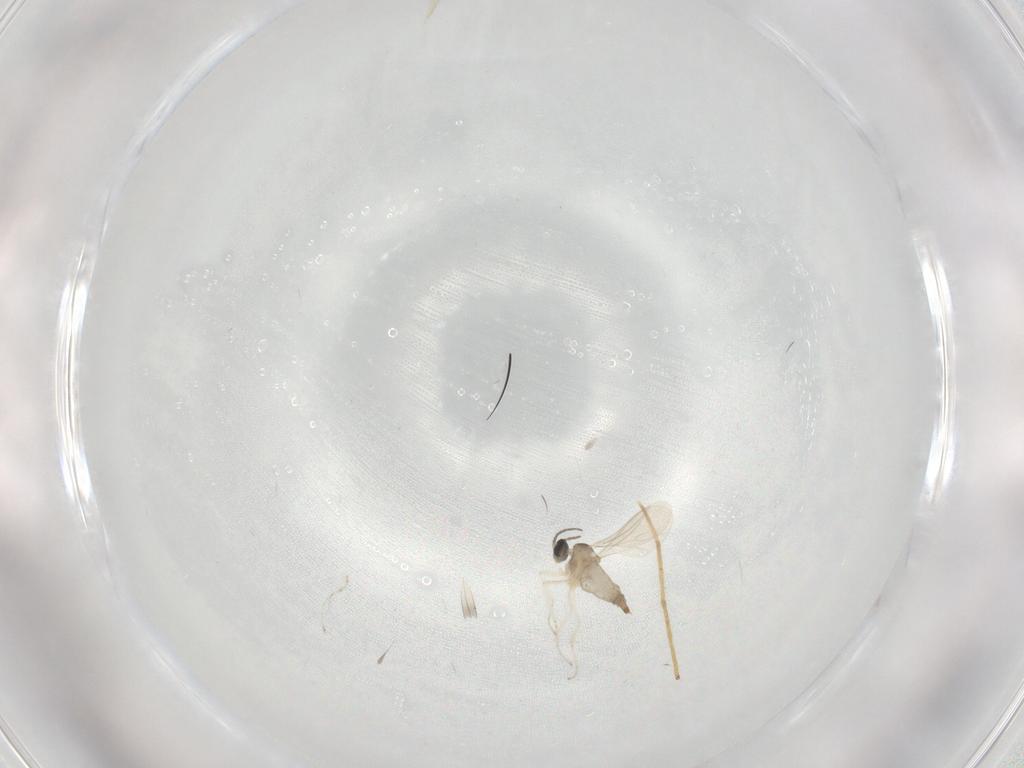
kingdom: Animalia
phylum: Arthropoda
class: Insecta
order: Diptera
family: Cecidomyiidae
